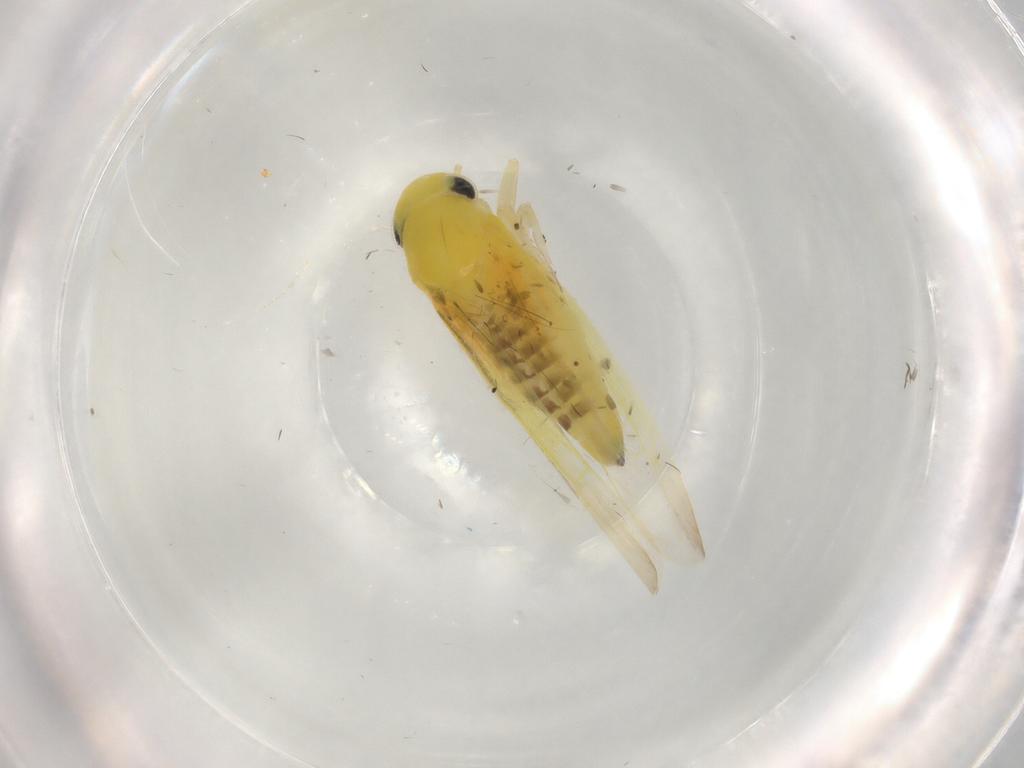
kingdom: Animalia
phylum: Arthropoda
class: Insecta
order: Hemiptera
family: Cicadellidae
